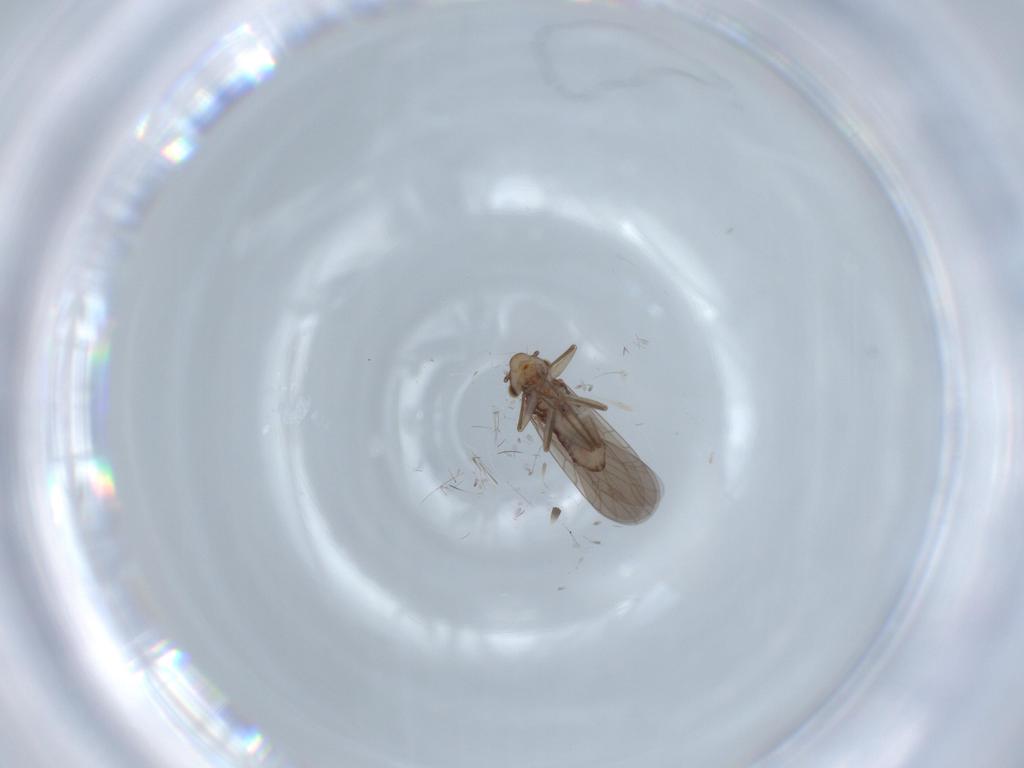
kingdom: Animalia
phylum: Arthropoda
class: Insecta
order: Psocodea
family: Lepidopsocidae
